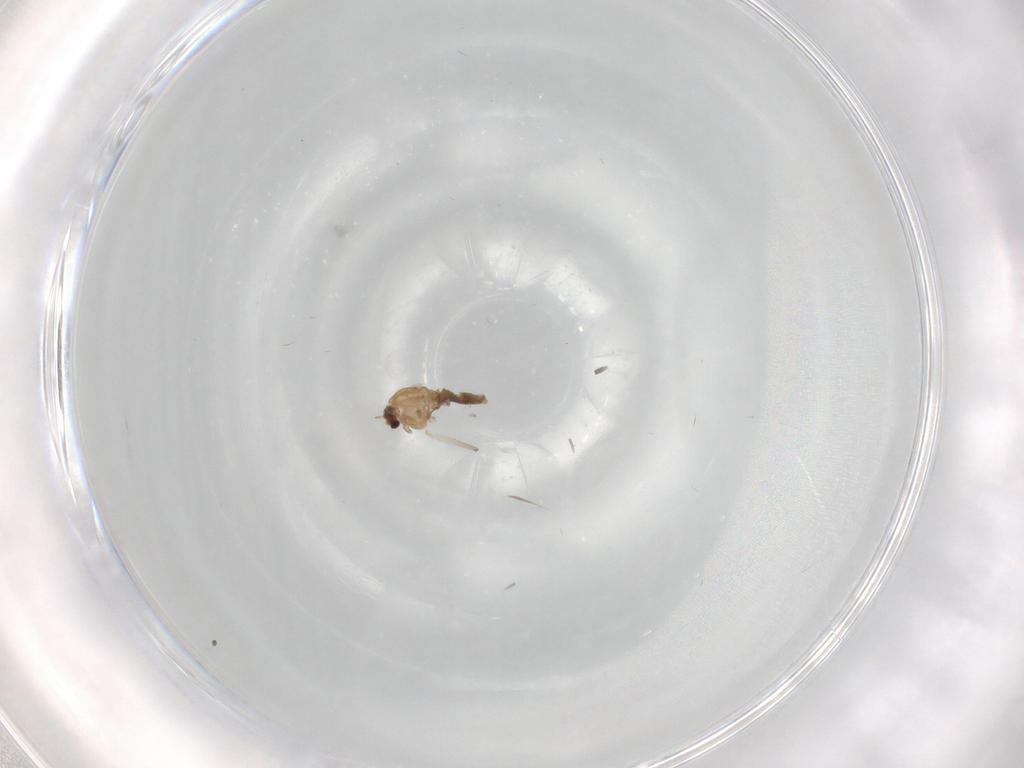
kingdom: Animalia
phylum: Arthropoda
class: Insecta
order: Diptera
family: Chironomidae
